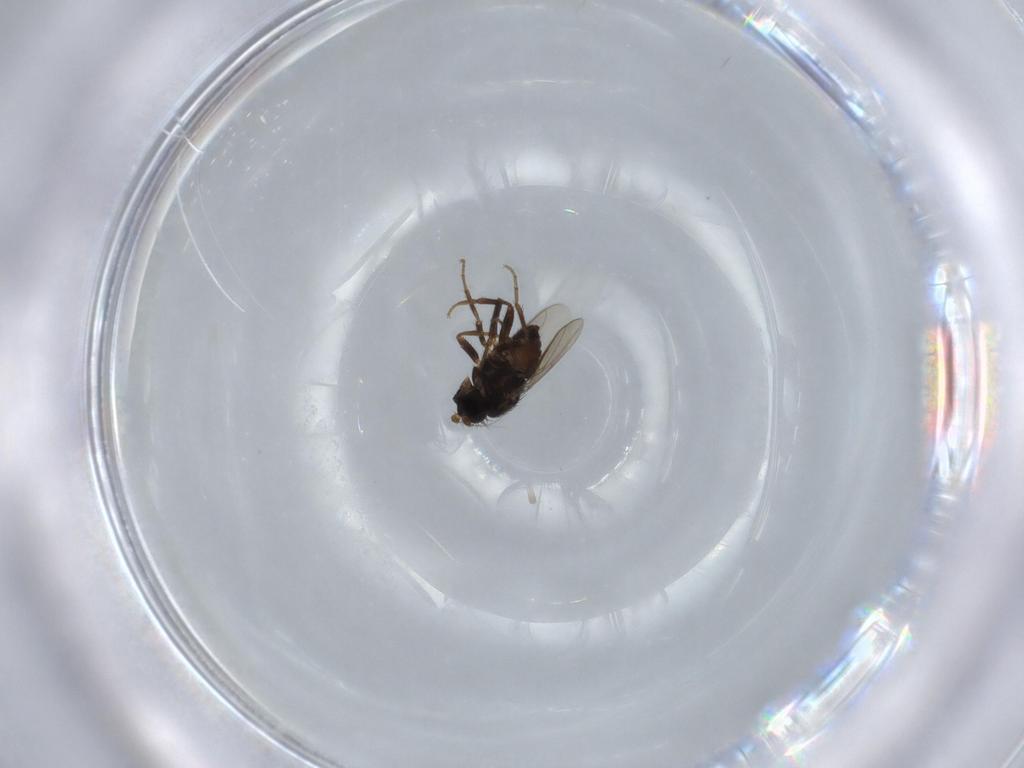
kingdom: Animalia
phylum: Arthropoda
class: Insecta
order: Diptera
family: Sphaeroceridae
